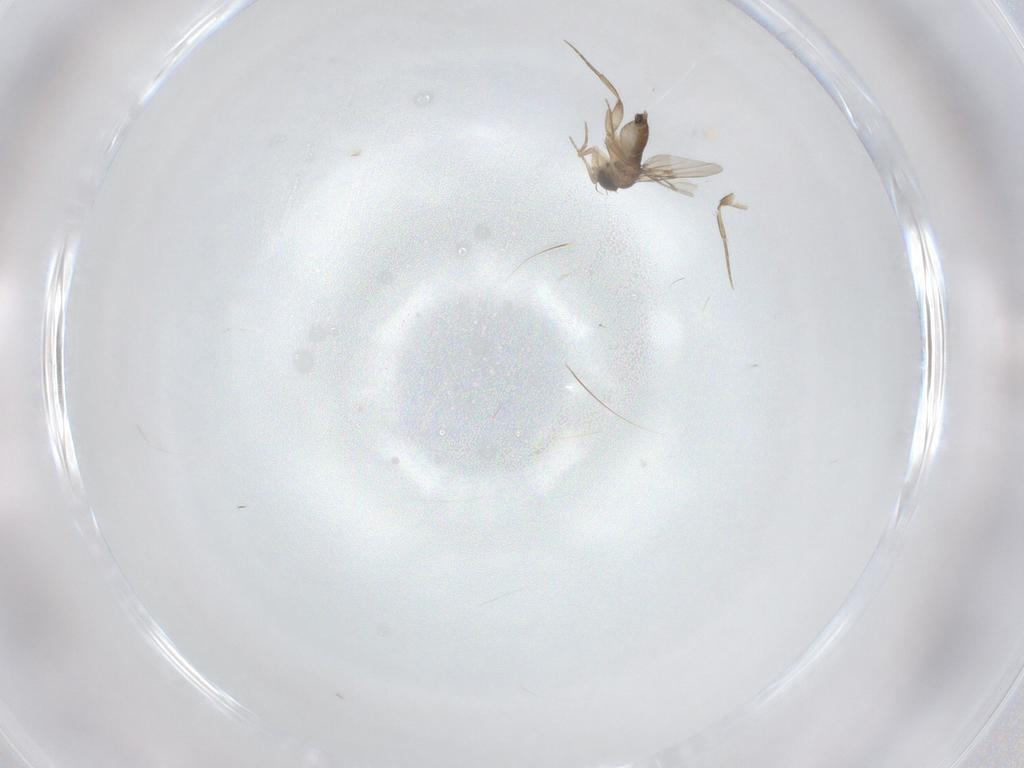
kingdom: Animalia
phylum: Arthropoda
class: Insecta
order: Diptera
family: Phoridae
